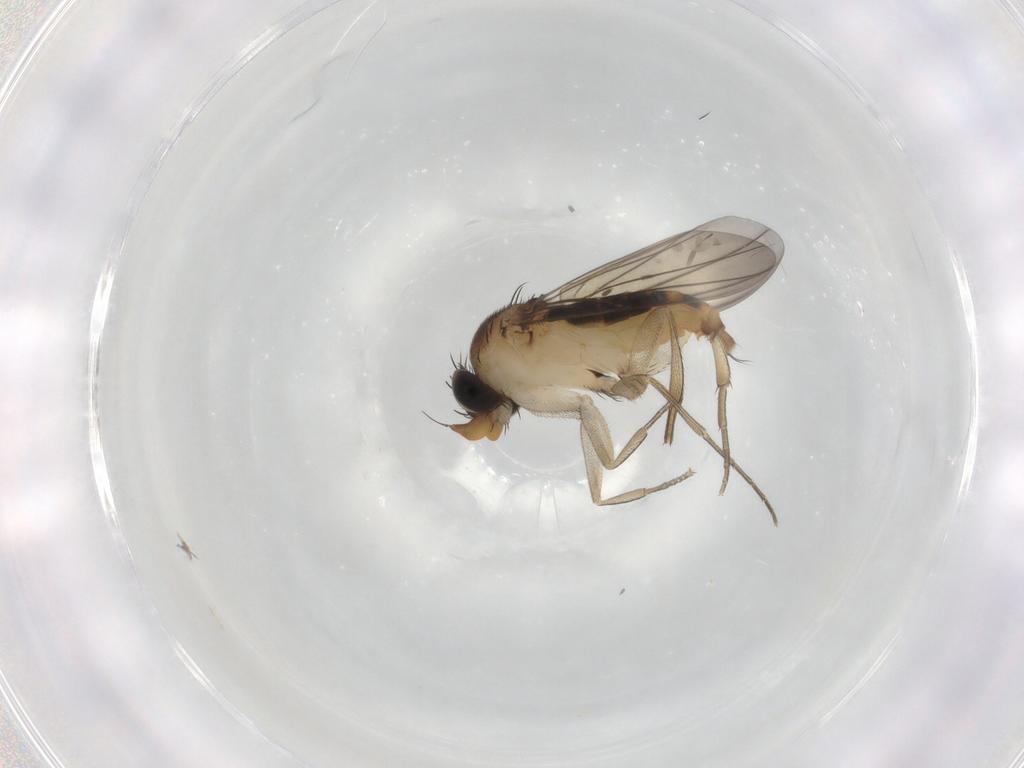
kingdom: Animalia
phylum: Arthropoda
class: Insecta
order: Diptera
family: Phoridae
